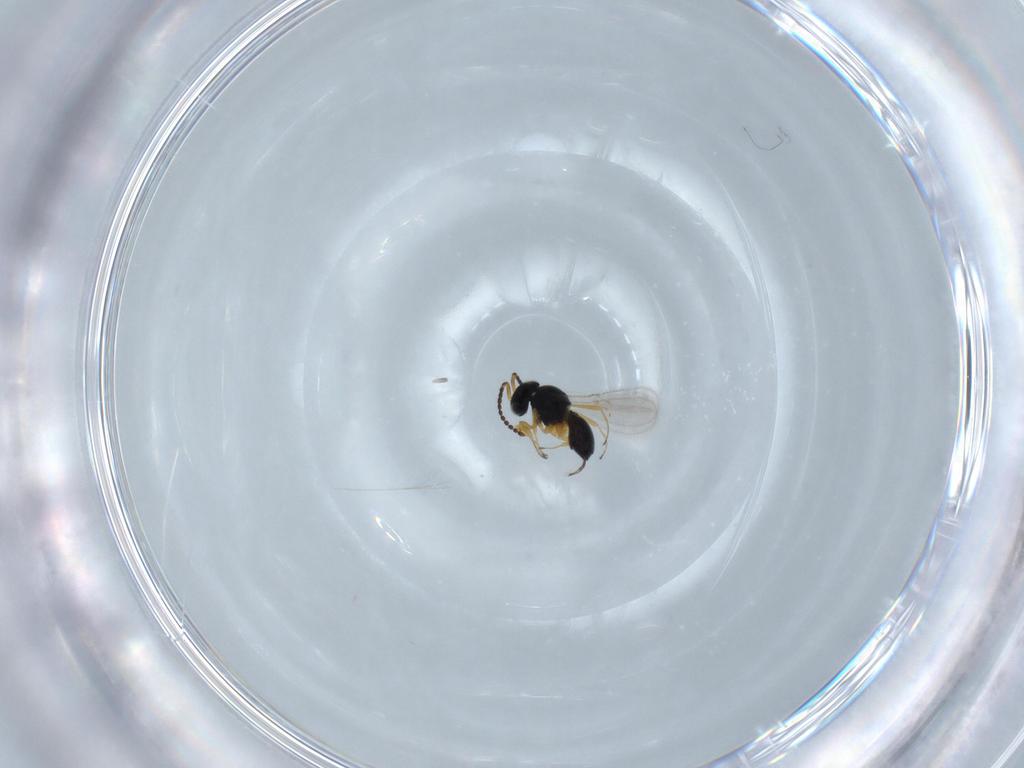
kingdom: Animalia
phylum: Arthropoda
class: Insecta
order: Hymenoptera
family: Scelionidae
